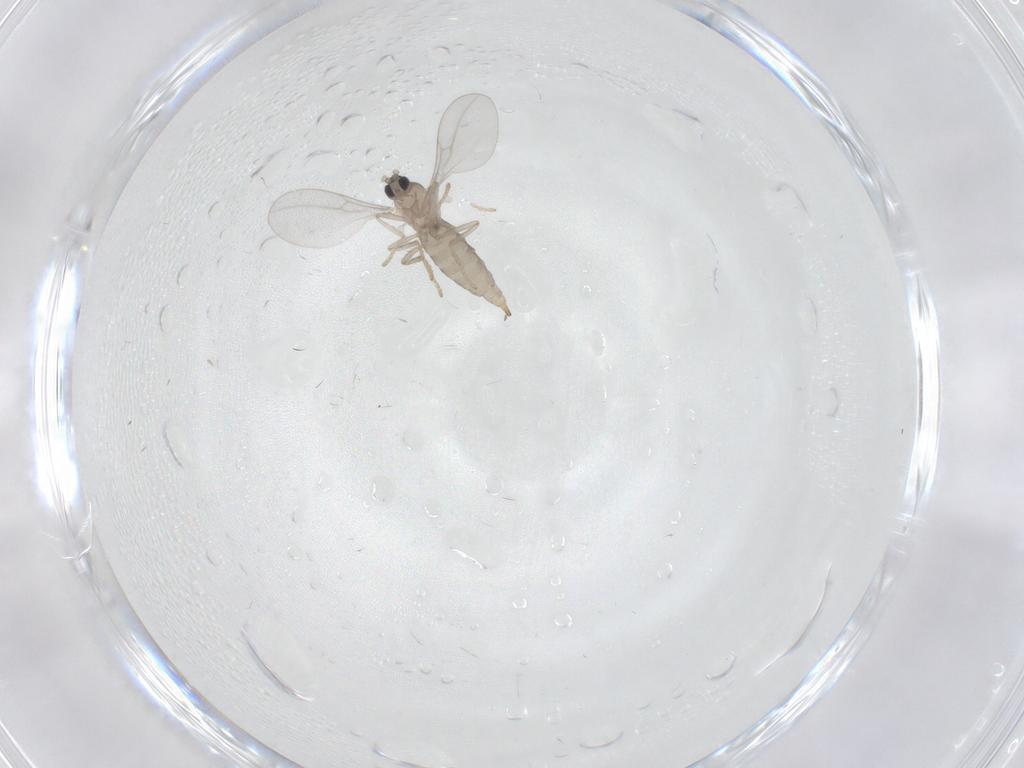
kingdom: Animalia
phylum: Arthropoda
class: Insecta
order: Diptera
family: Cecidomyiidae
